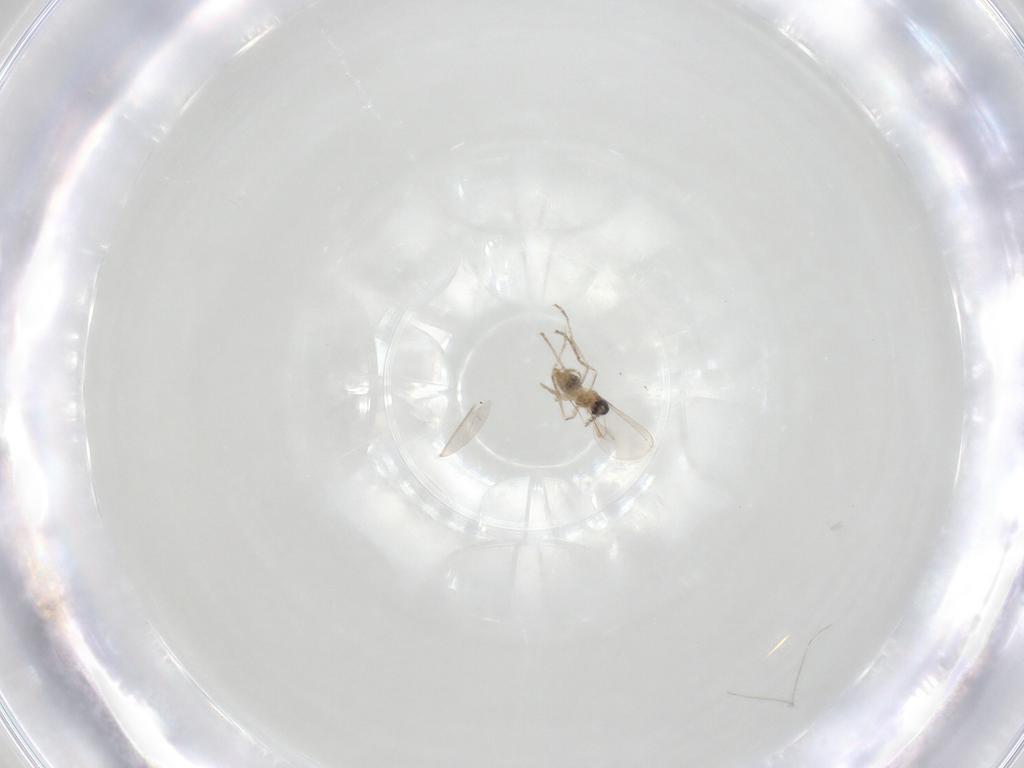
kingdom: Animalia
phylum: Arthropoda
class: Insecta
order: Diptera
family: Cecidomyiidae
